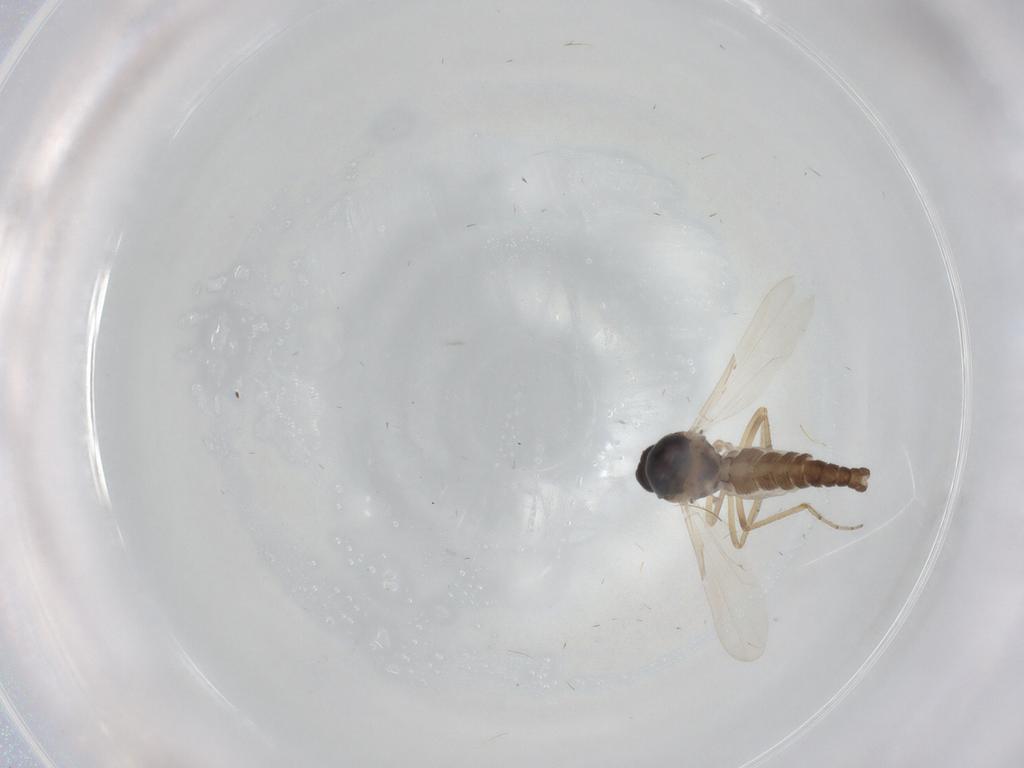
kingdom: Animalia
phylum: Arthropoda
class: Insecta
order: Diptera
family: Ceratopogonidae
